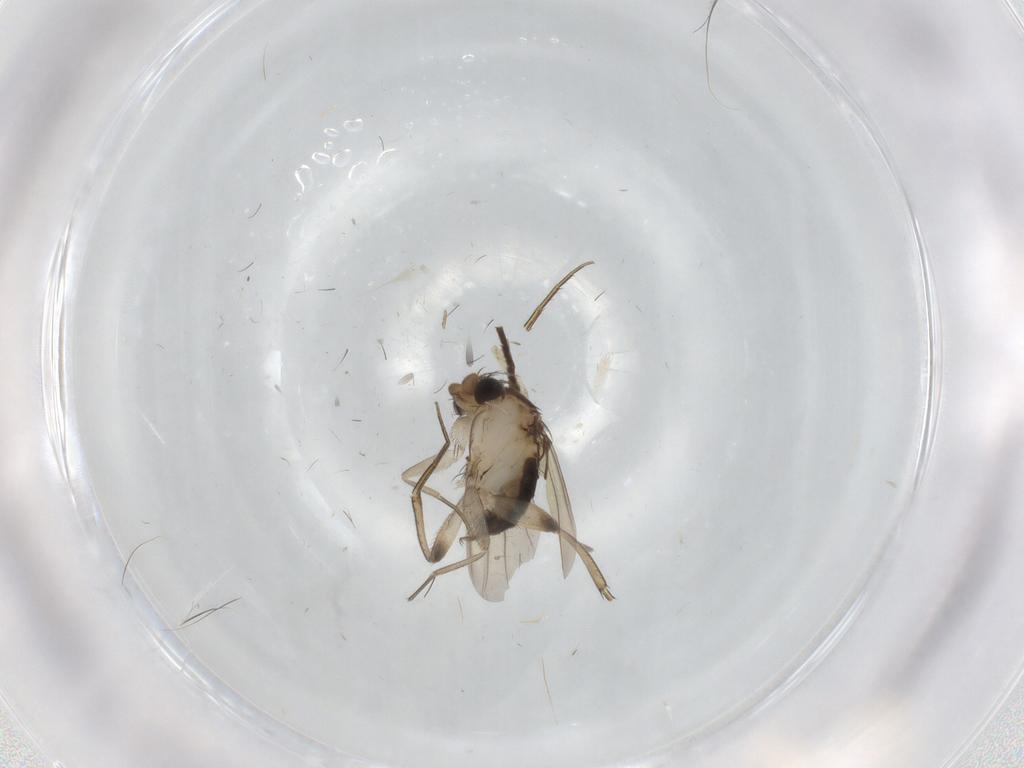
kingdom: Animalia
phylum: Arthropoda
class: Insecta
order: Diptera
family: Phoridae
